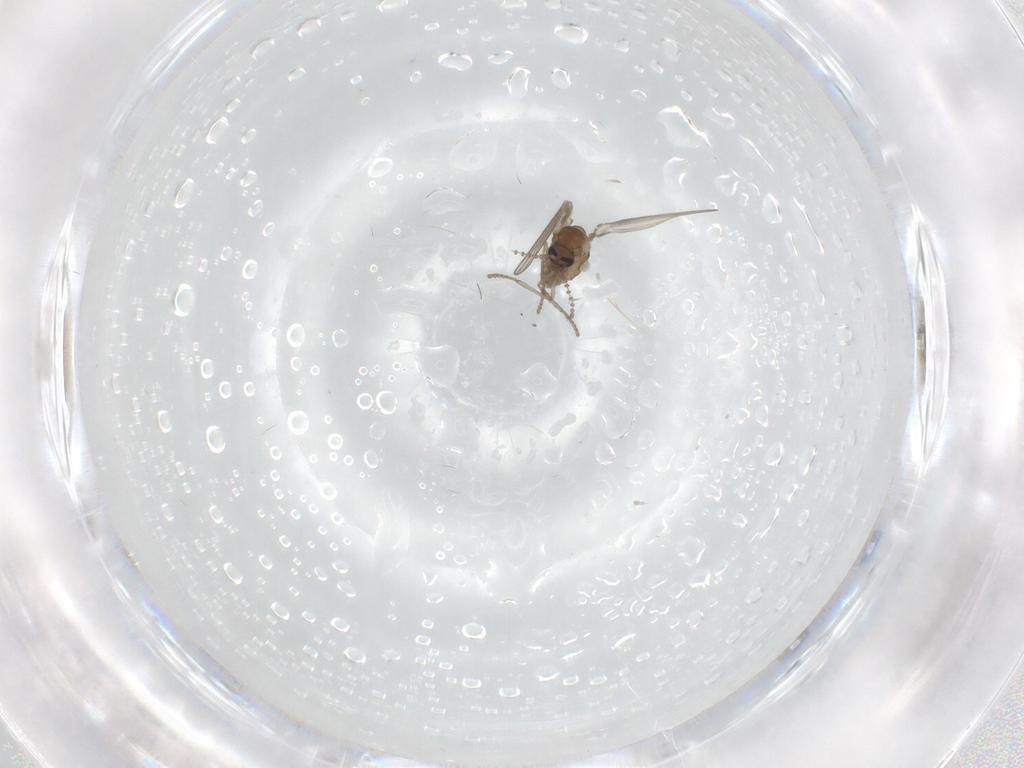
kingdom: Animalia
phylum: Arthropoda
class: Insecta
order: Diptera
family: Psychodidae
